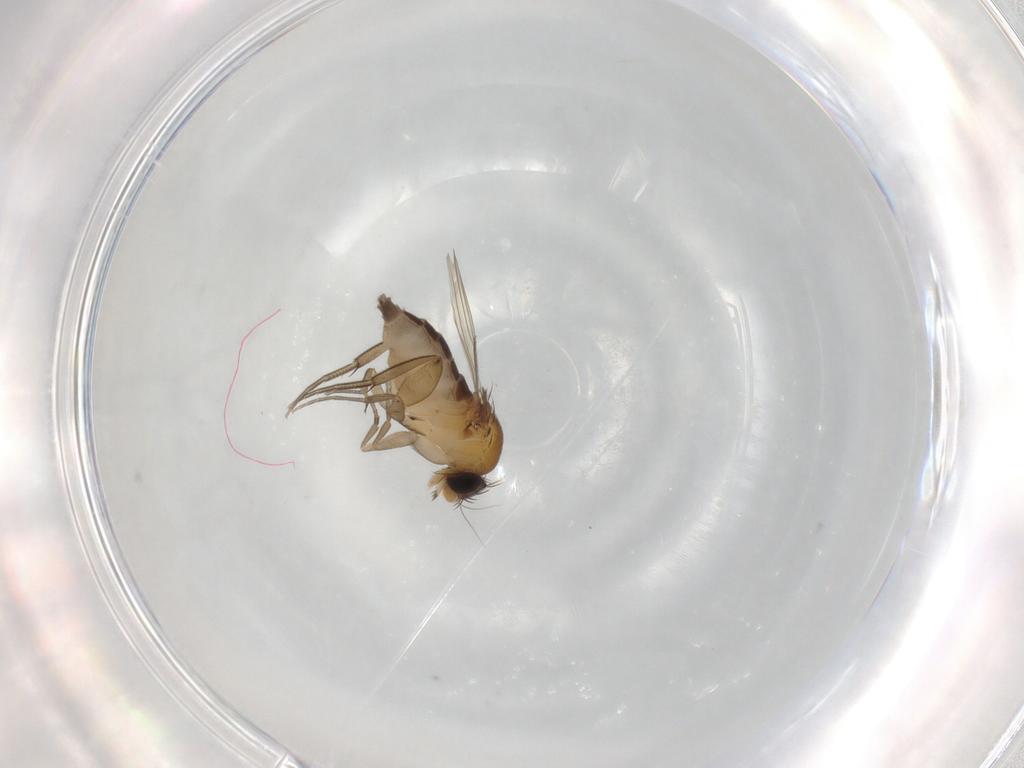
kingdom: Animalia
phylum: Arthropoda
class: Insecta
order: Diptera
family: Phoridae
